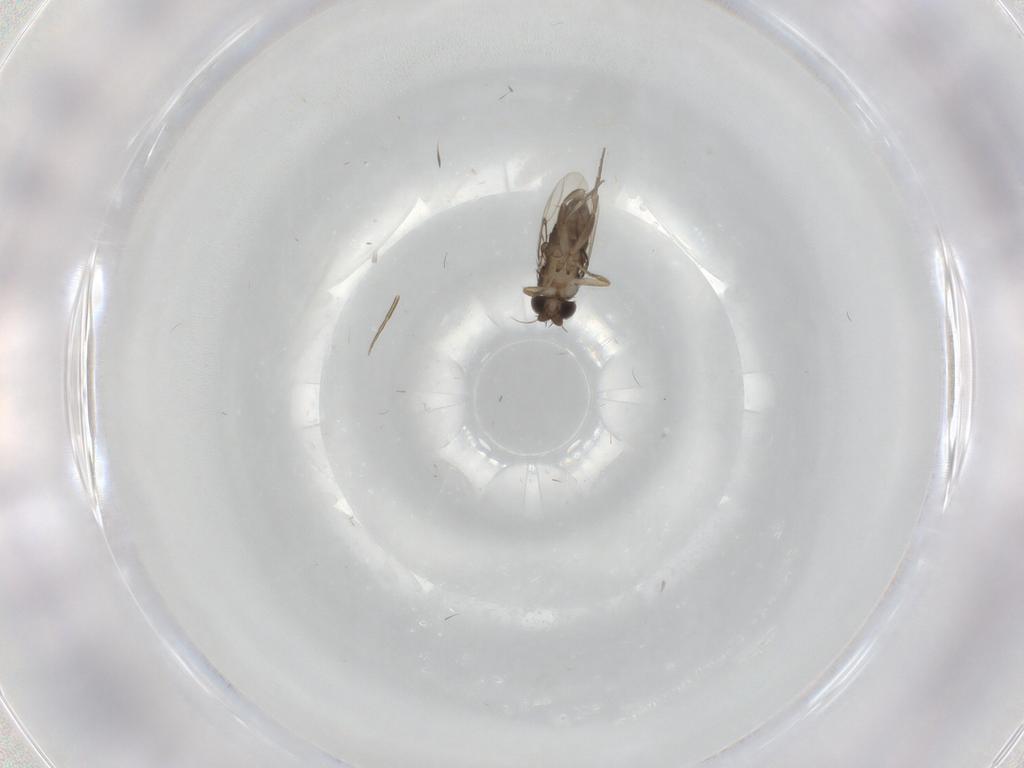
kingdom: Animalia
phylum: Arthropoda
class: Insecta
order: Diptera
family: Phoridae
